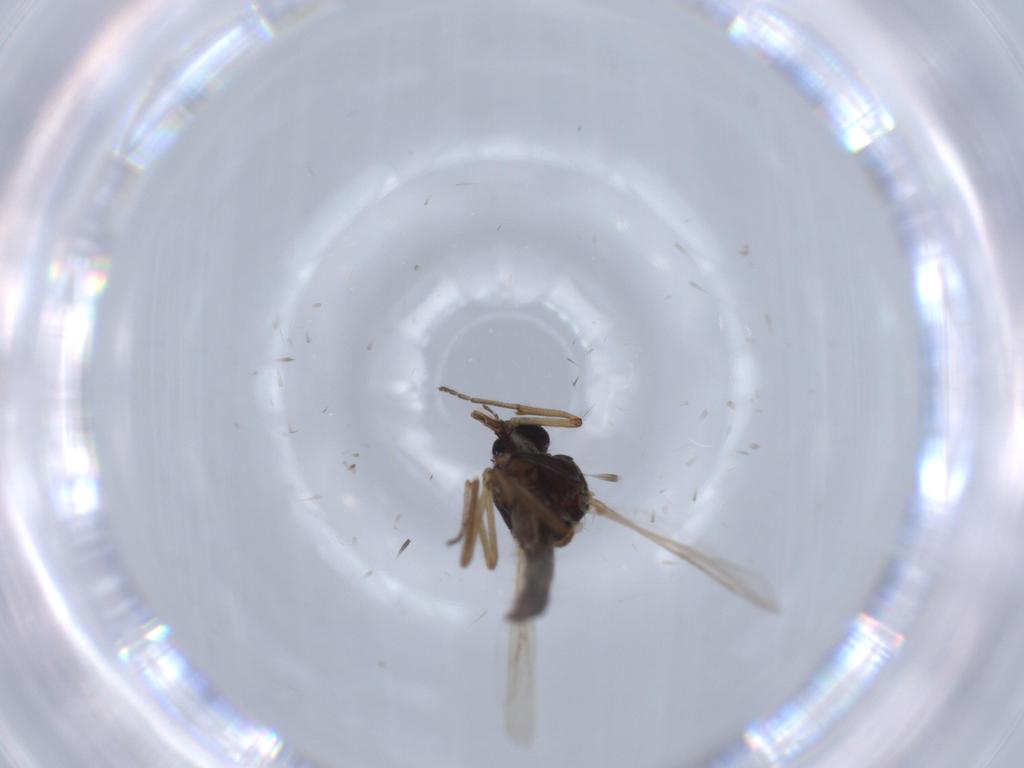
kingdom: Animalia
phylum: Arthropoda
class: Insecta
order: Diptera
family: Ceratopogonidae
